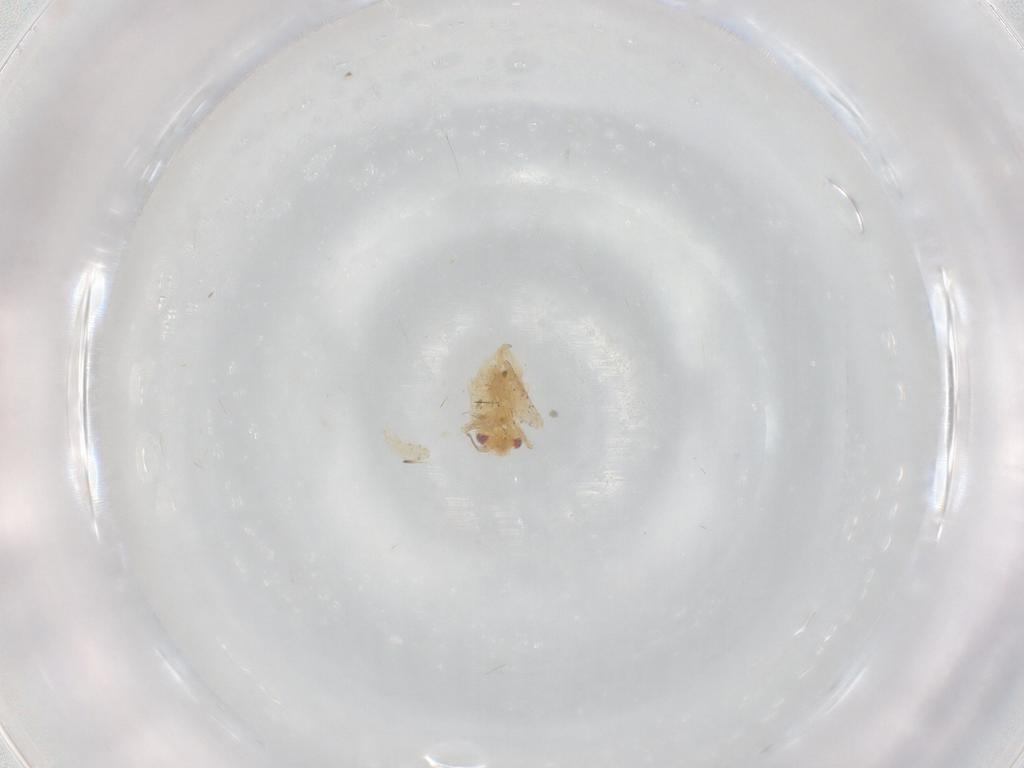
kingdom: Animalia
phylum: Arthropoda
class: Insecta
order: Hemiptera
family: Miridae
